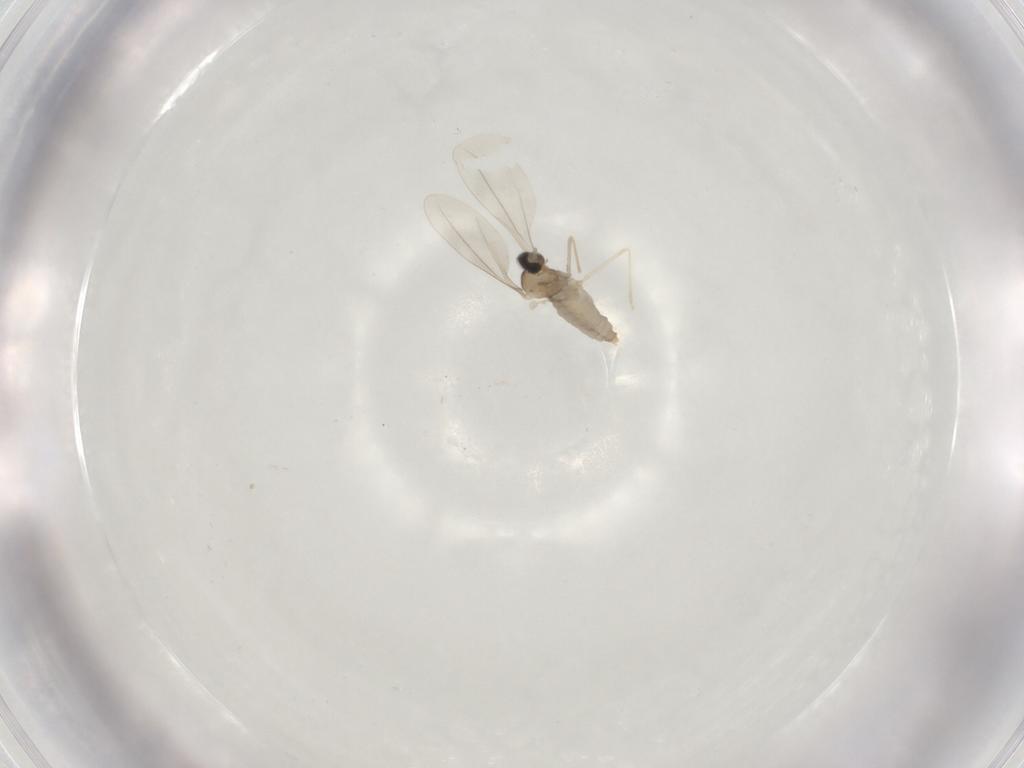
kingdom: Animalia
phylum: Arthropoda
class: Insecta
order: Diptera
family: Cecidomyiidae
